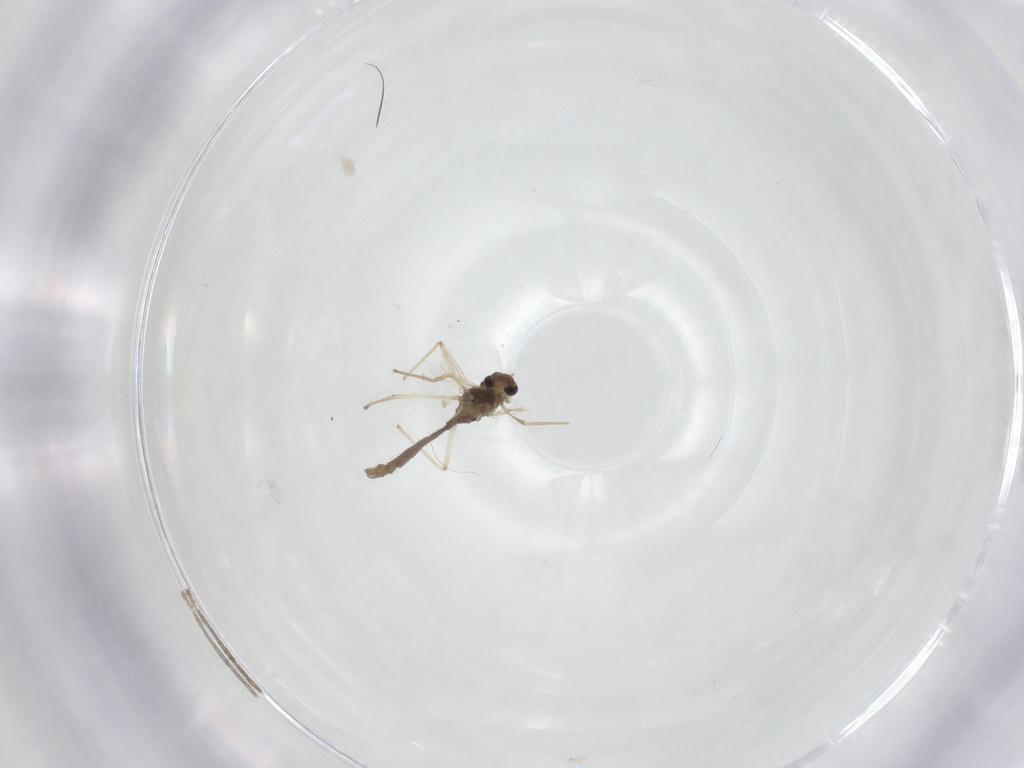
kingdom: Animalia
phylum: Arthropoda
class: Insecta
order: Diptera
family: Chironomidae
